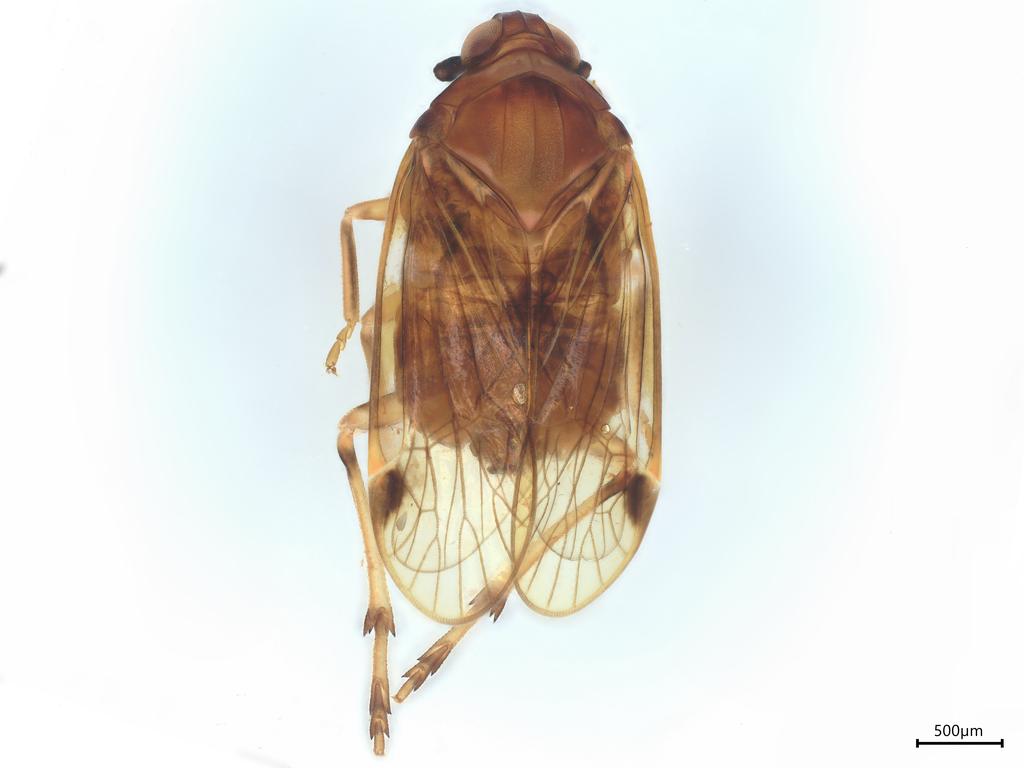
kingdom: Animalia
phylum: Arthropoda
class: Insecta
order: Hemiptera
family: Kinnaridae
